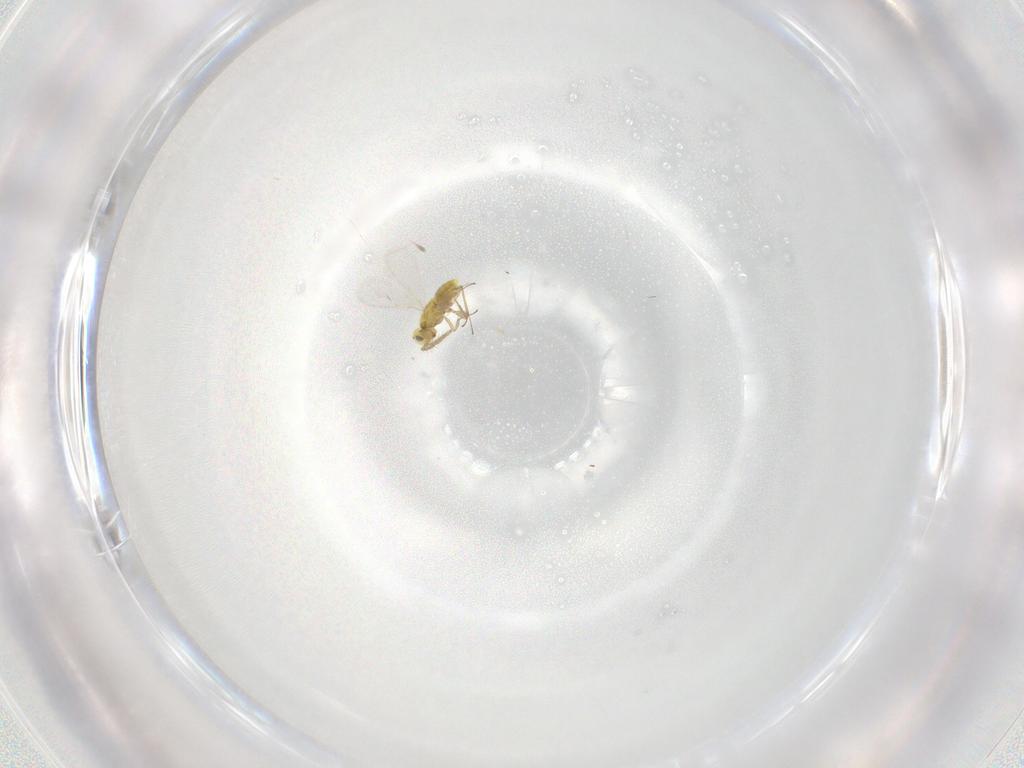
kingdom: Animalia
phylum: Arthropoda
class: Insecta
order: Hymenoptera
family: Aphelinidae
